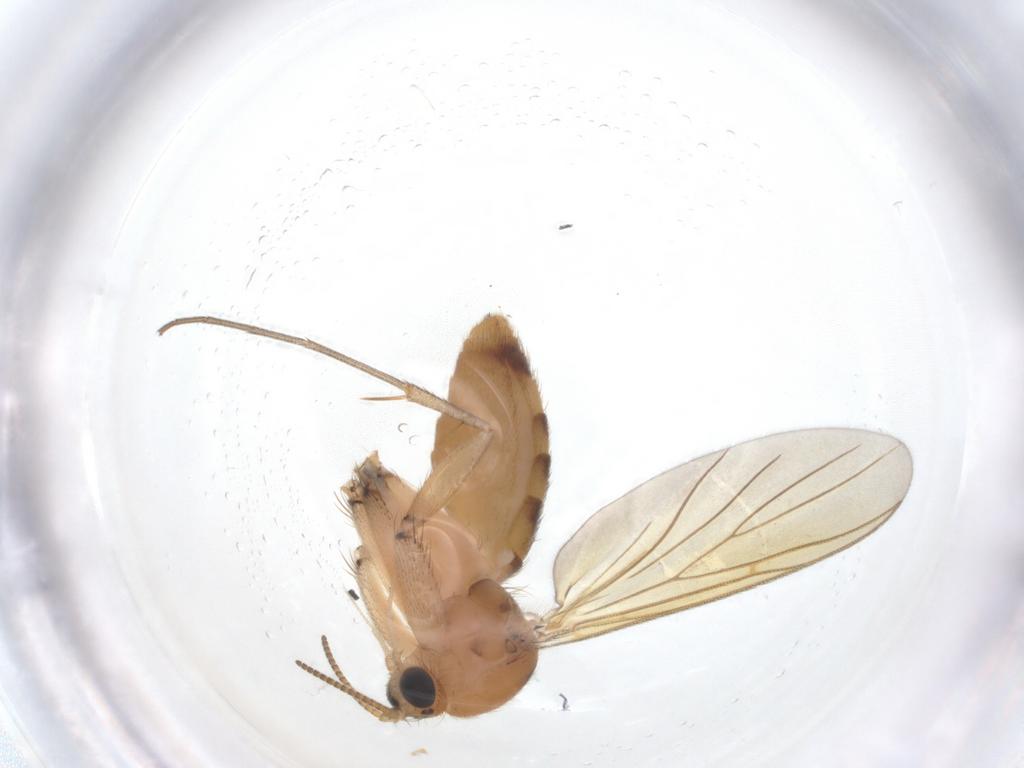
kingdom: Animalia
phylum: Arthropoda
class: Insecta
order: Diptera
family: Mycetophilidae
